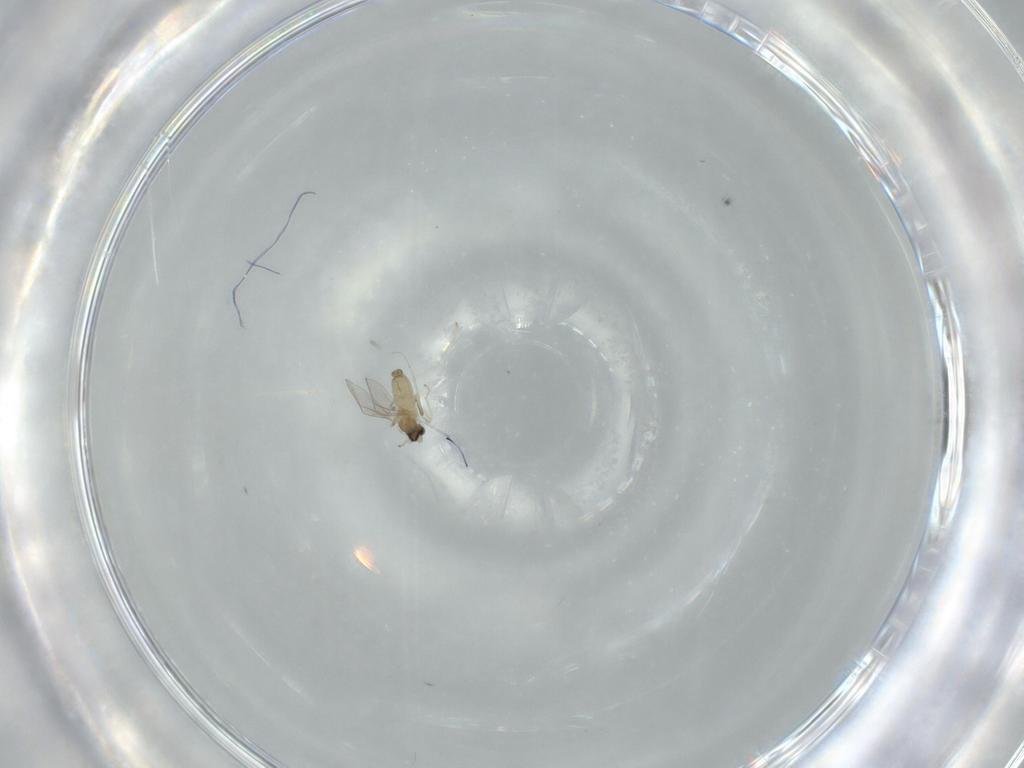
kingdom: Animalia
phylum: Arthropoda
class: Insecta
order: Diptera
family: Cecidomyiidae
